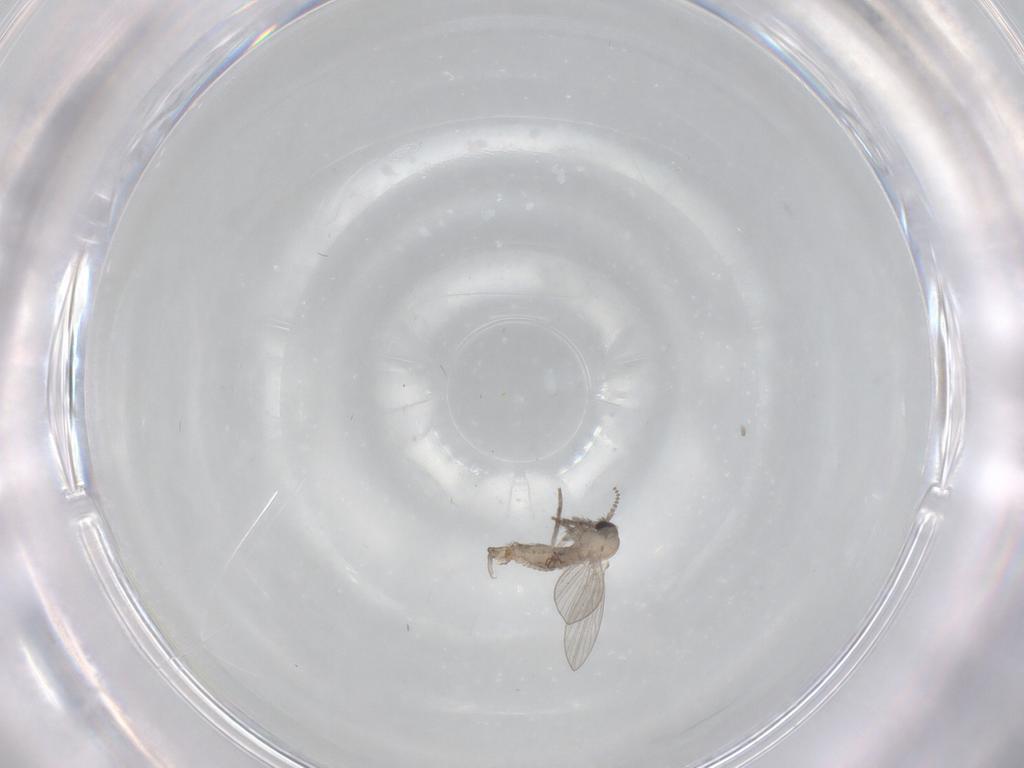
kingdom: Animalia
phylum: Arthropoda
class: Insecta
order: Diptera
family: Psychodidae
